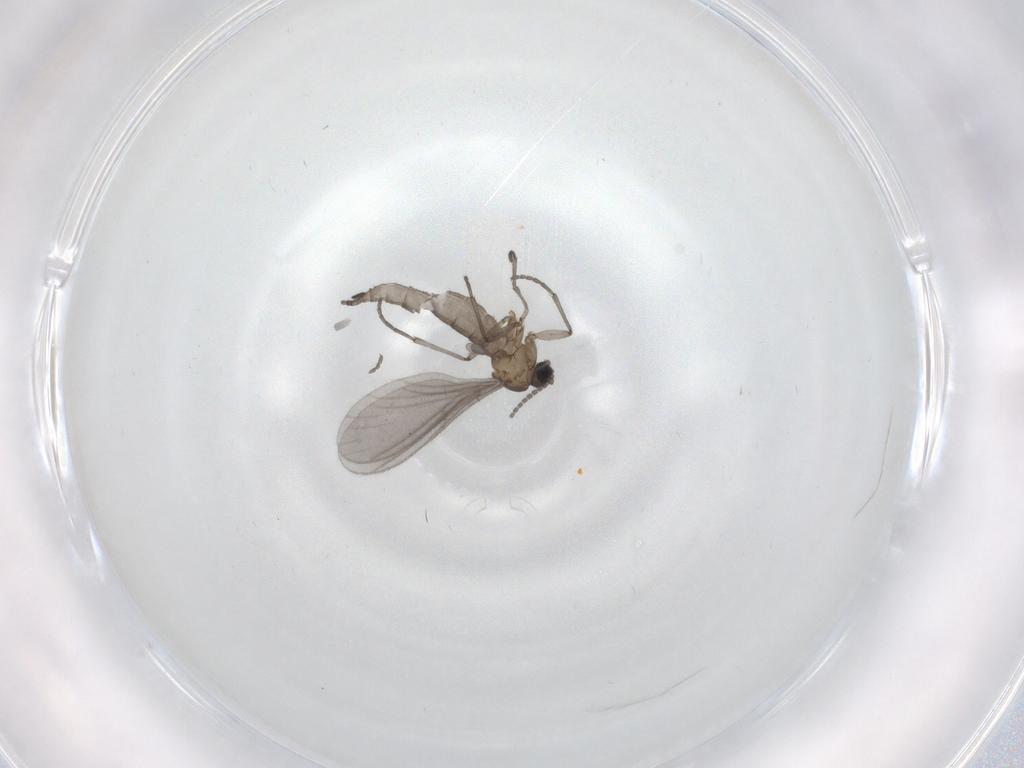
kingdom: Animalia
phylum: Arthropoda
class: Insecta
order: Diptera
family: Sciaridae
